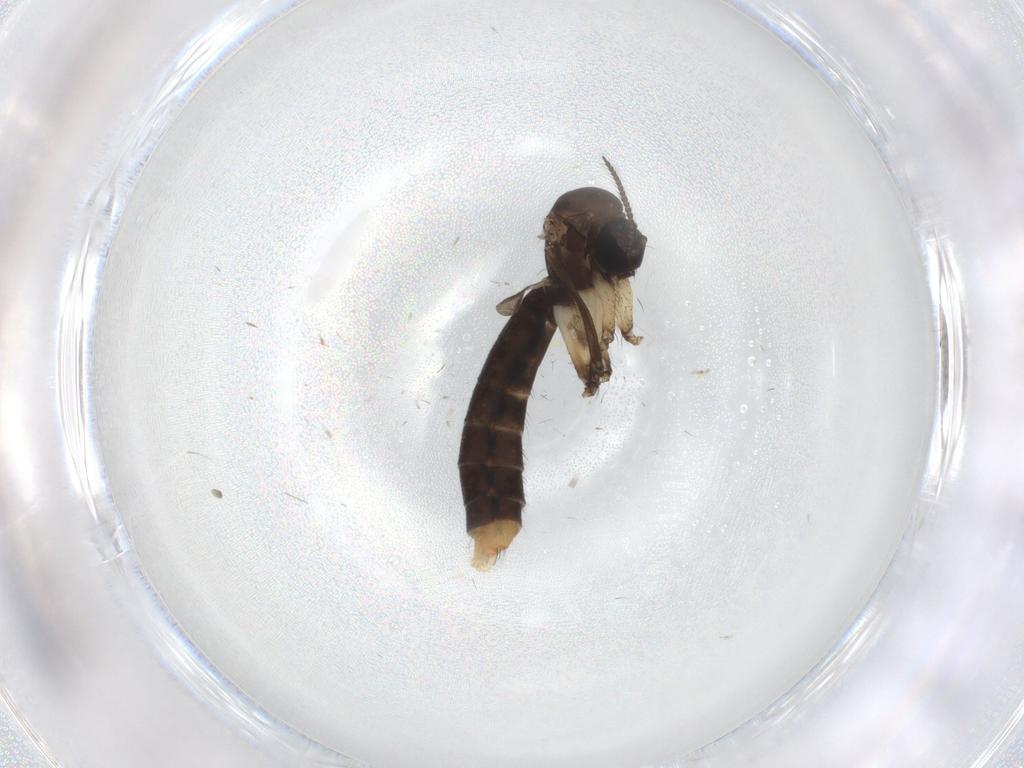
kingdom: Animalia
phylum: Arthropoda
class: Insecta
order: Diptera
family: Ditomyiidae
